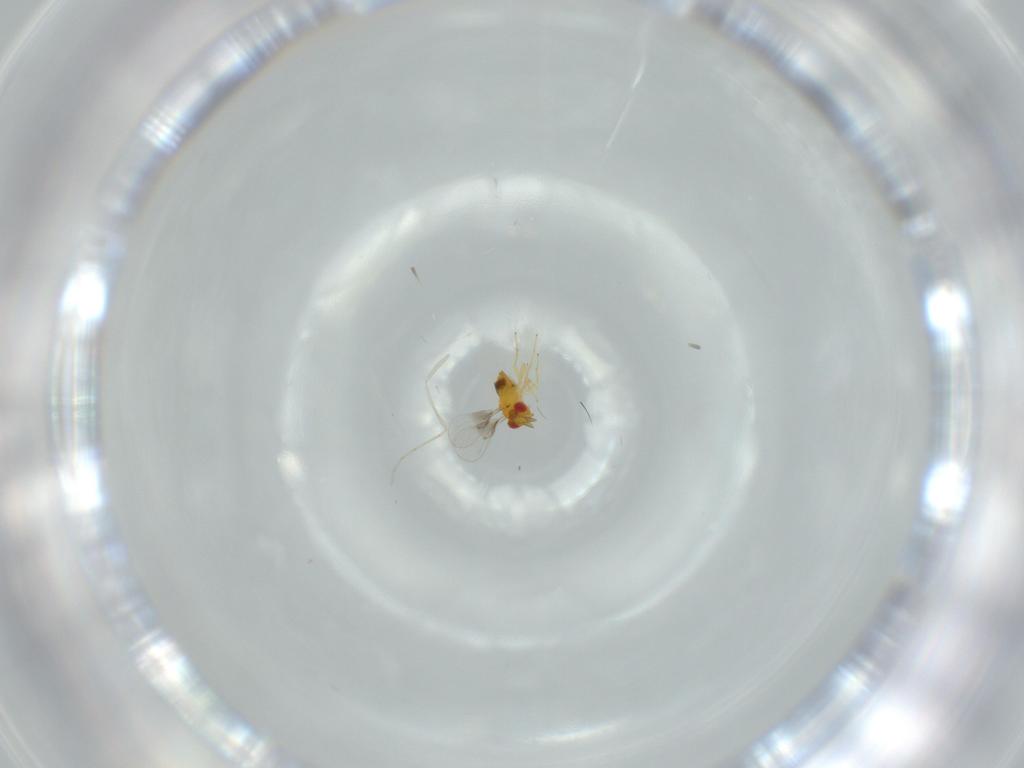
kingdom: Animalia
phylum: Arthropoda
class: Insecta
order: Hymenoptera
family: Trichogrammatidae
